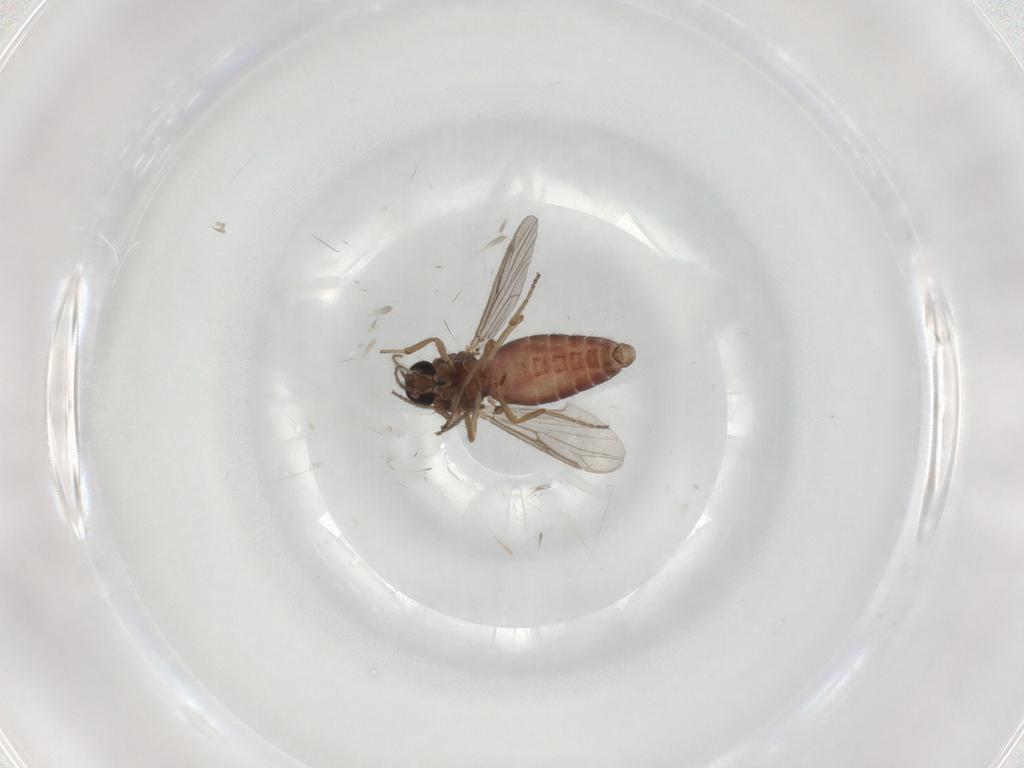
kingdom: Animalia
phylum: Arthropoda
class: Insecta
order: Diptera
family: Ceratopogonidae
